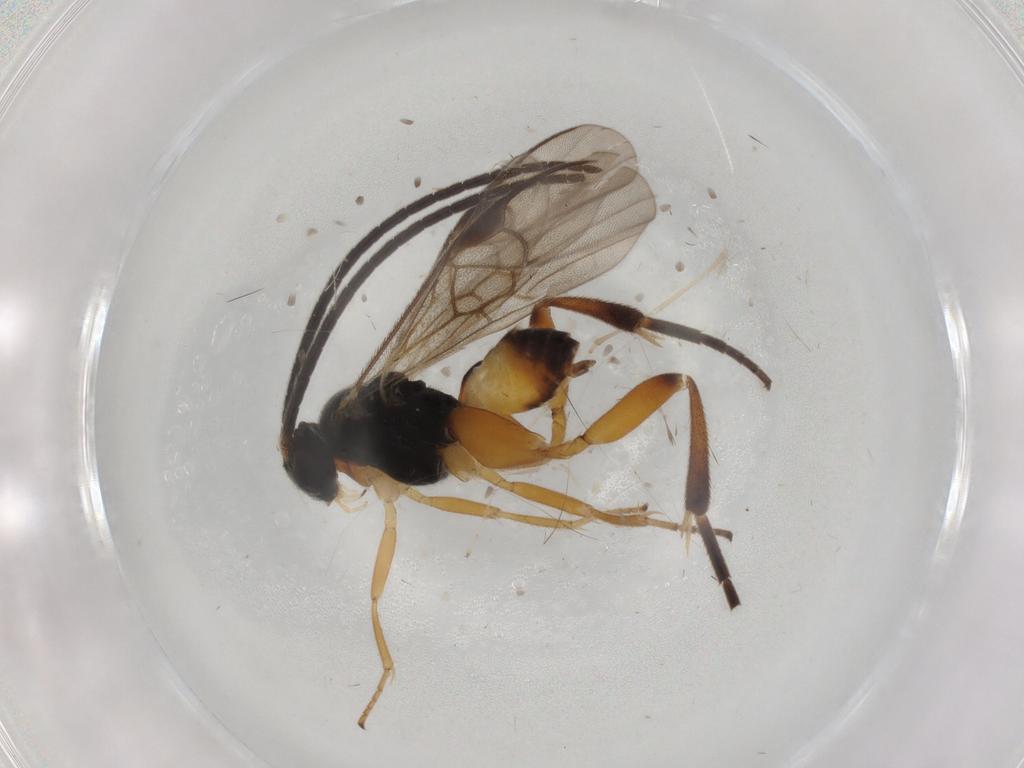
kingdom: Animalia
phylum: Arthropoda
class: Insecta
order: Hymenoptera
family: Braconidae
